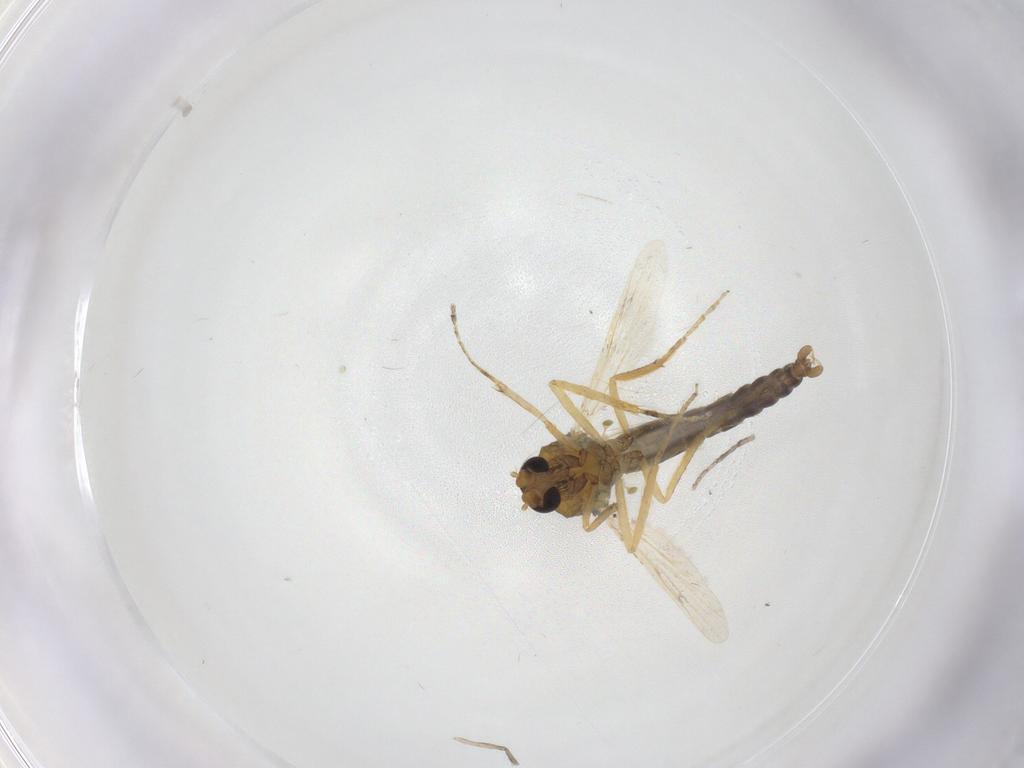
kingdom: Animalia
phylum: Arthropoda
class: Insecta
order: Diptera
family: Ceratopogonidae
